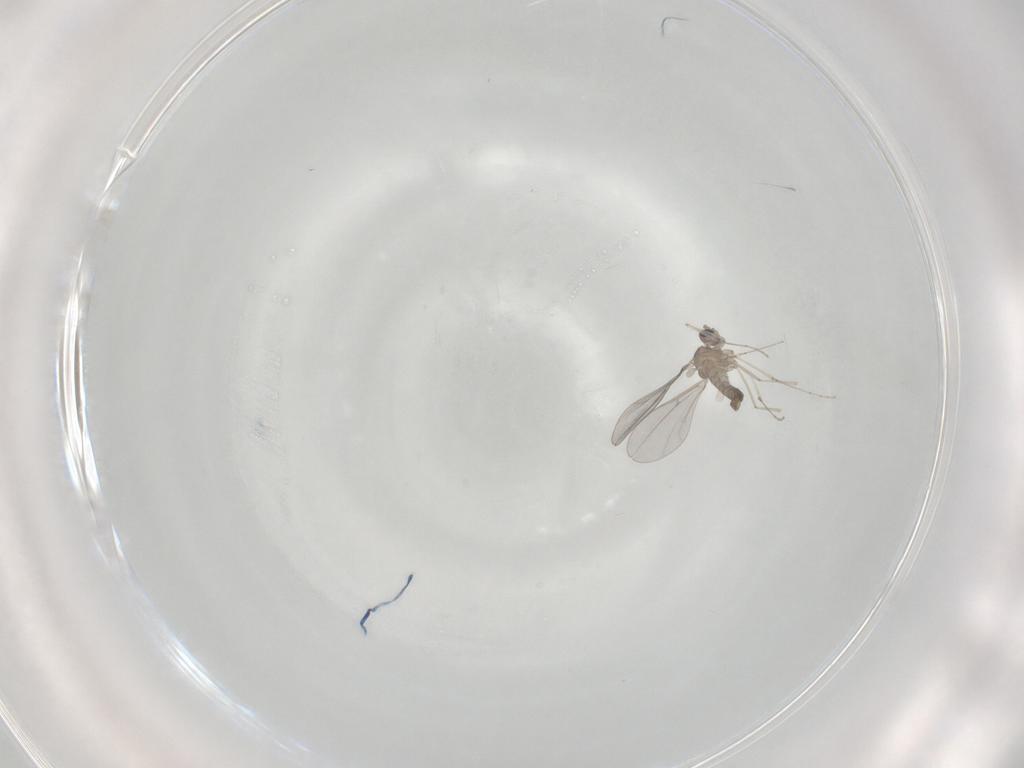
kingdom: Animalia
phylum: Arthropoda
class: Insecta
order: Diptera
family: Cecidomyiidae
